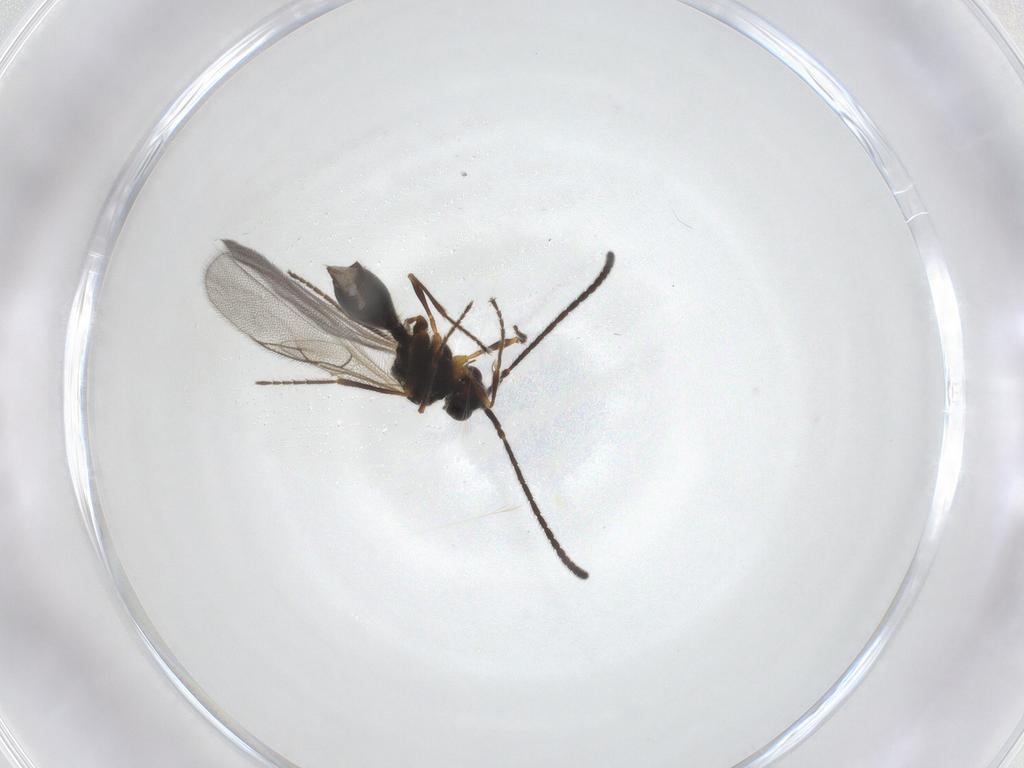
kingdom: Animalia
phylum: Arthropoda
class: Insecta
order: Hymenoptera
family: Diapriidae
